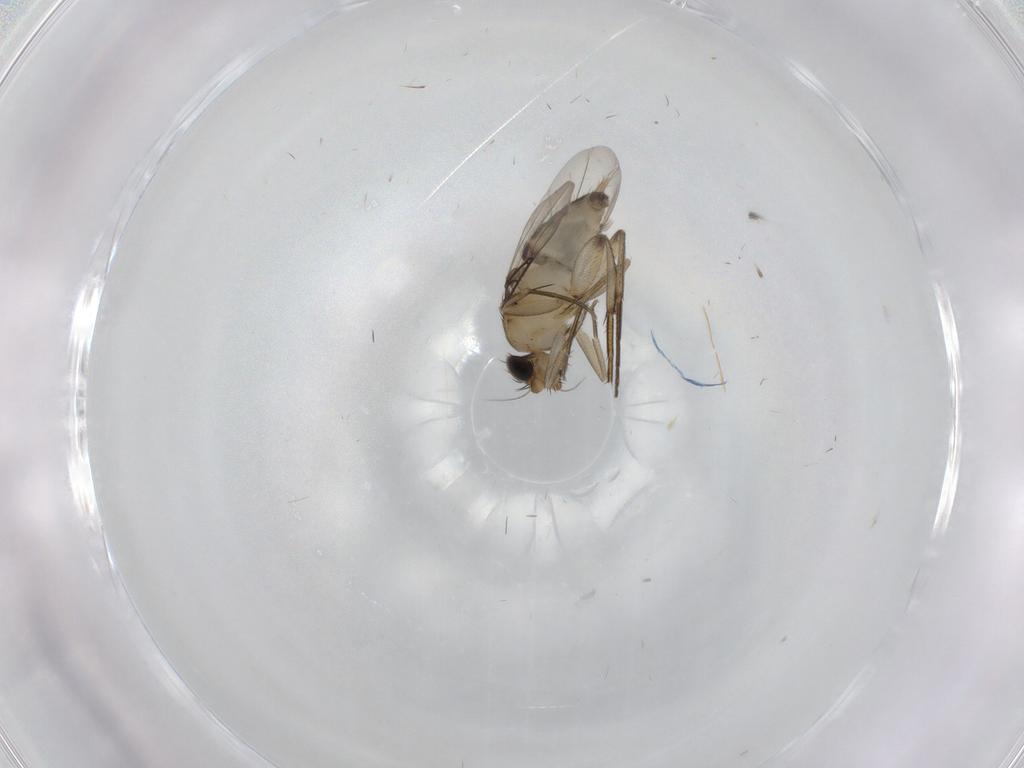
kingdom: Animalia
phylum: Arthropoda
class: Insecta
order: Diptera
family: Phoridae
